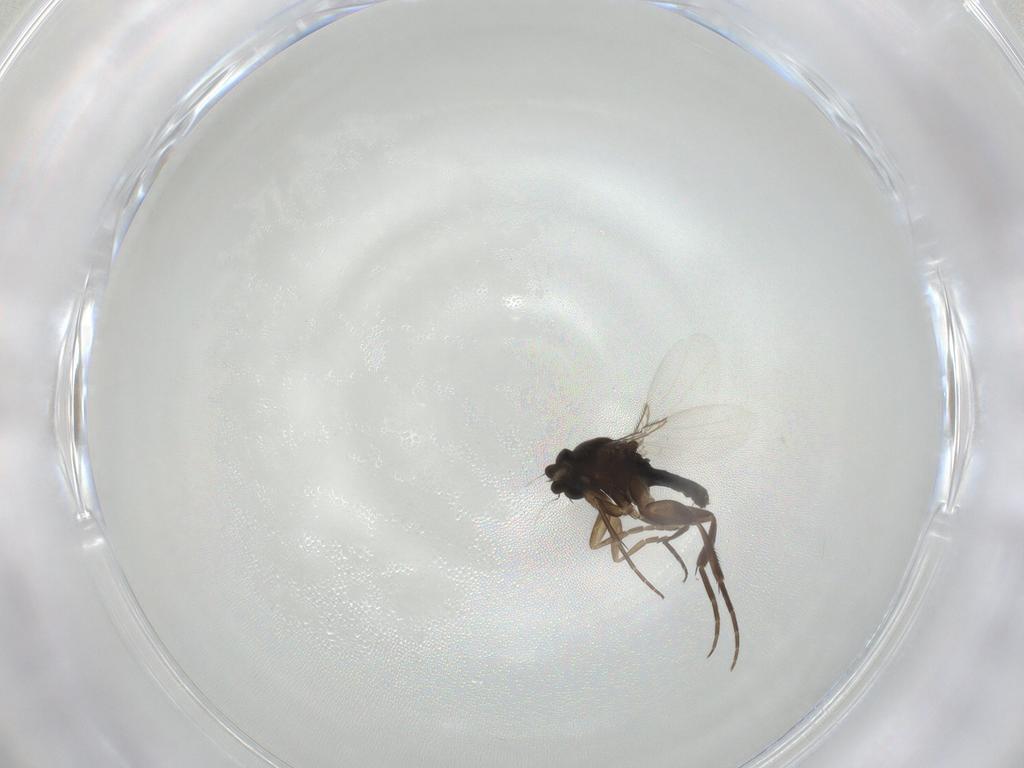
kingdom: Animalia
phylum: Arthropoda
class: Insecta
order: Diptera
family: Phoridae
